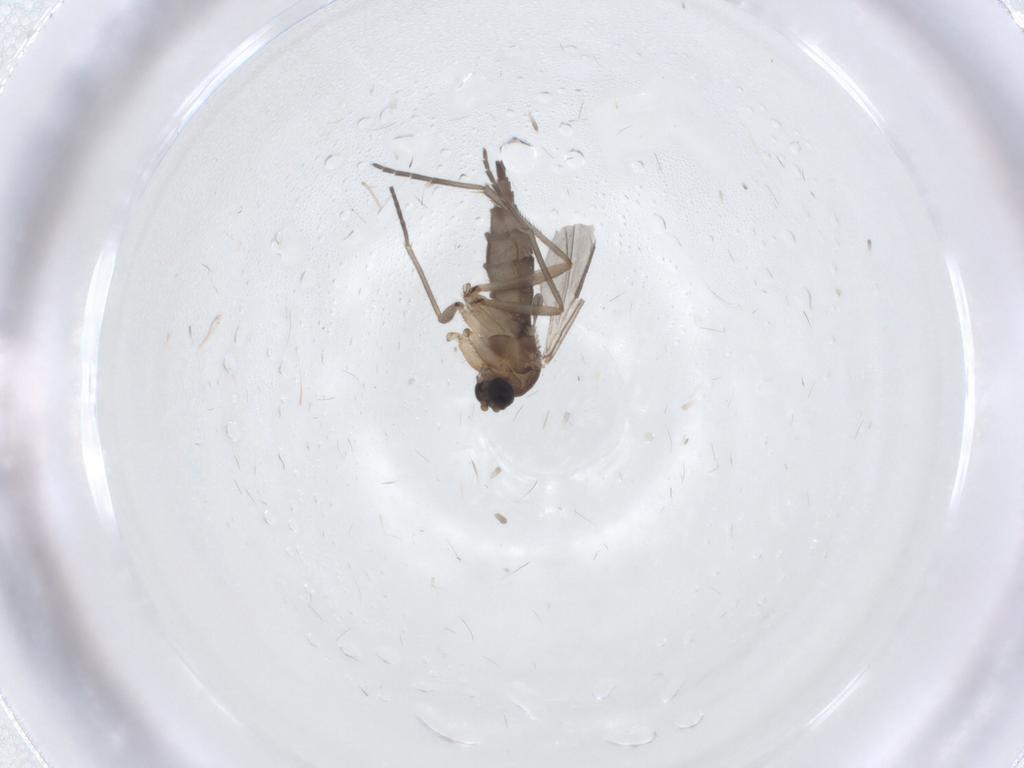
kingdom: Animalia
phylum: Arthropoda
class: Insecta
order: Diptera
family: Sciaridae
